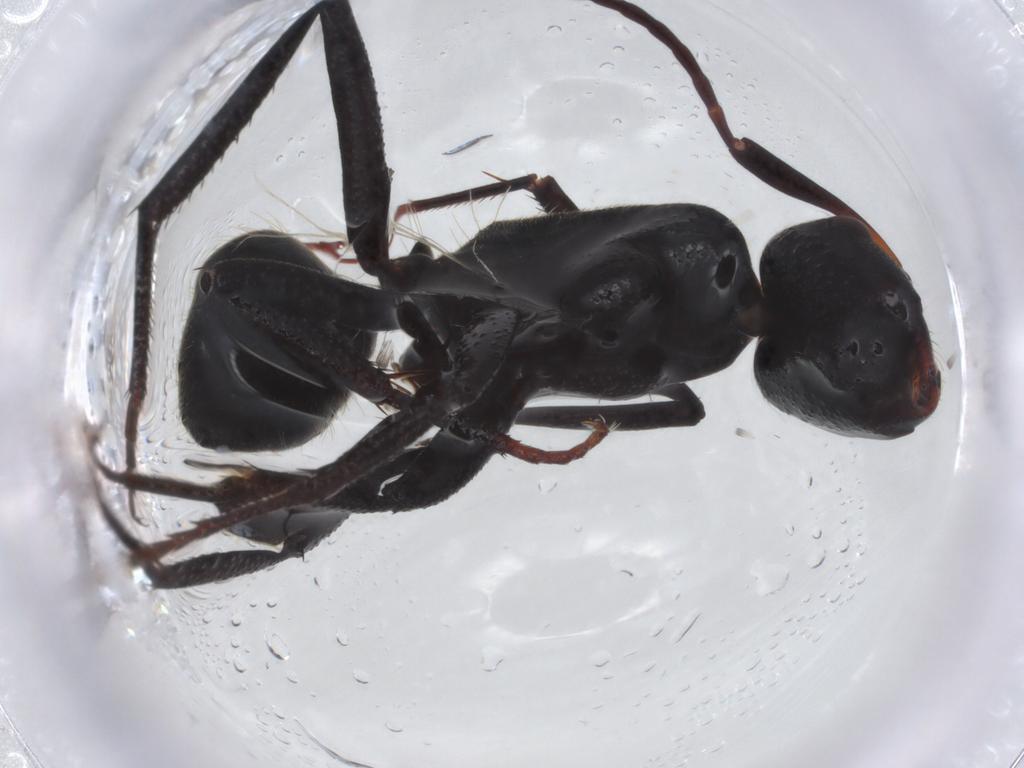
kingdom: Animalia
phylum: Arthropoda
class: Insecta
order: Hymenoptera
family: Formicidae
